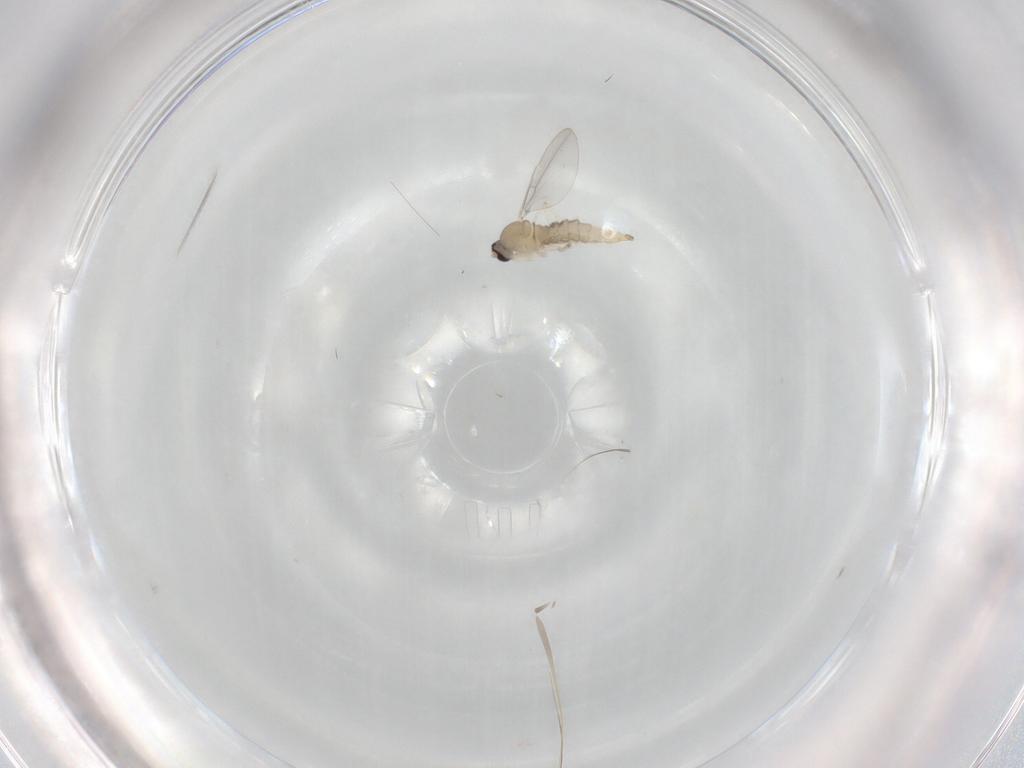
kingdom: Animalia
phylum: Arthropoda
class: Insecta
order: Diptera
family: Cecidomyiidae
